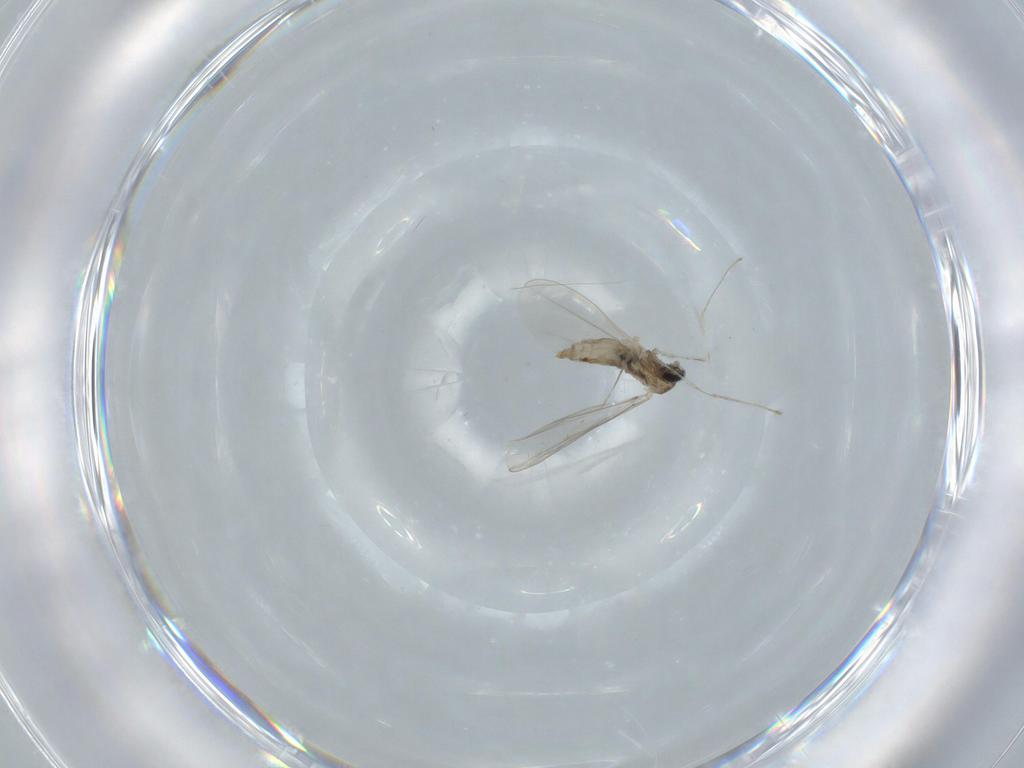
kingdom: Animalia
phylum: Arthropoda
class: Insecta
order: Diptera
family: Cecidomyiidae
